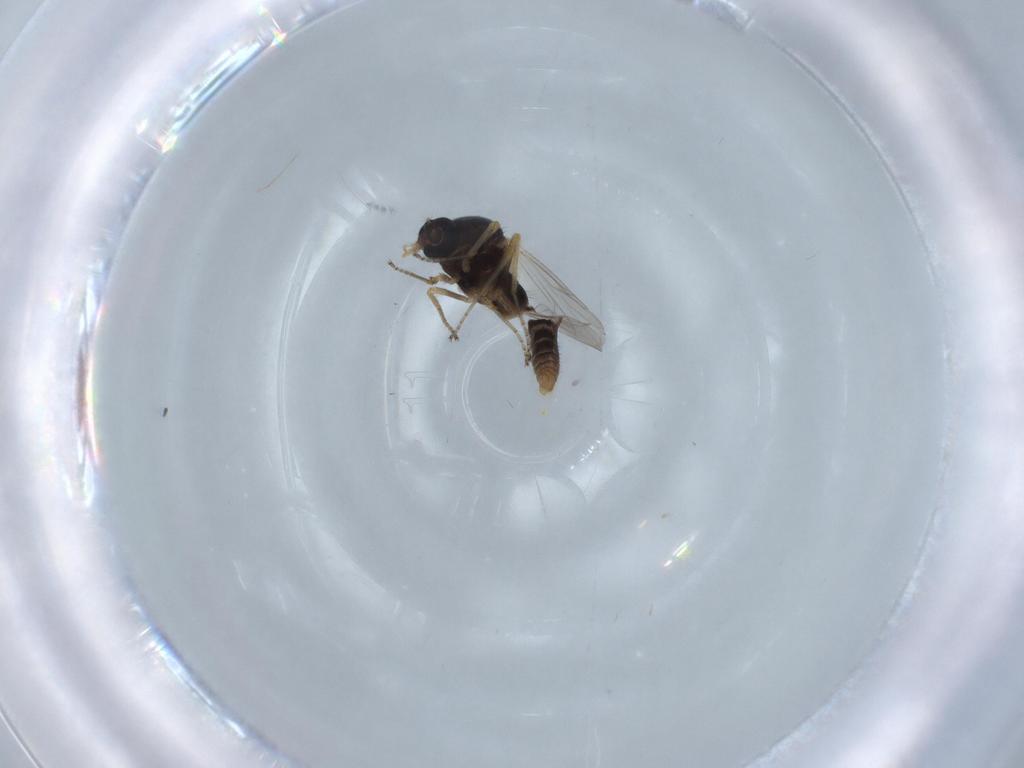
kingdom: Animalia
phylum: Arthropoda
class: Insecta
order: Diptera
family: Ceratopogonidae
